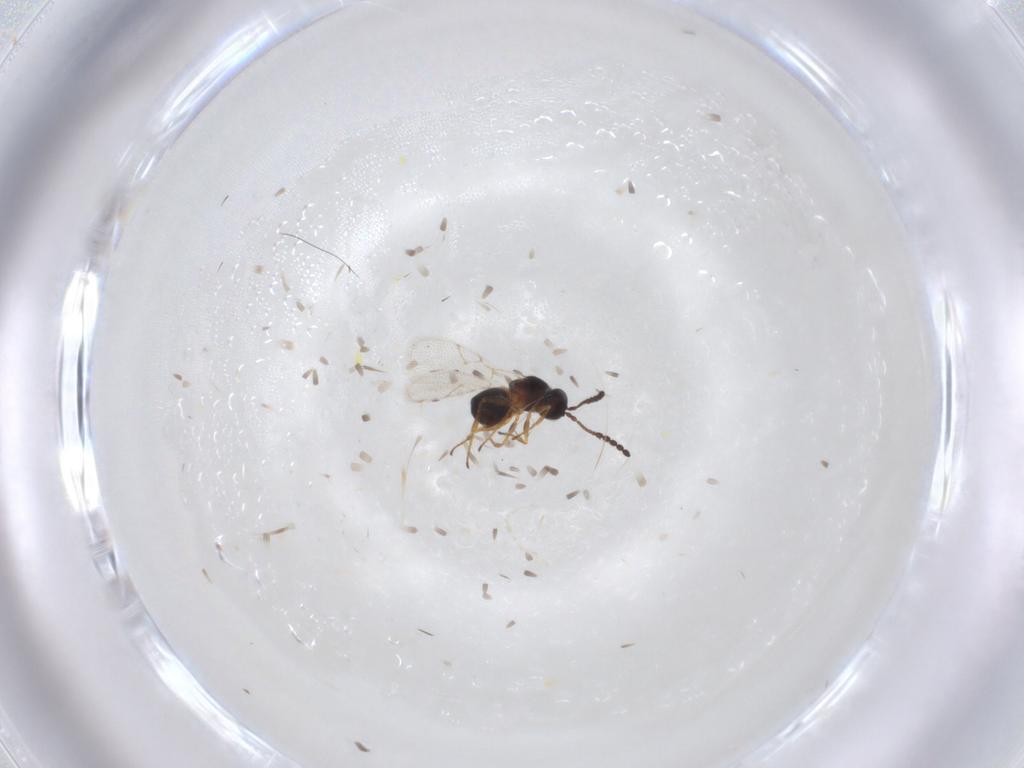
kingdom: Animalia
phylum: Arthropoda
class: Insecta
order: Hymenoptera
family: Figitidae
